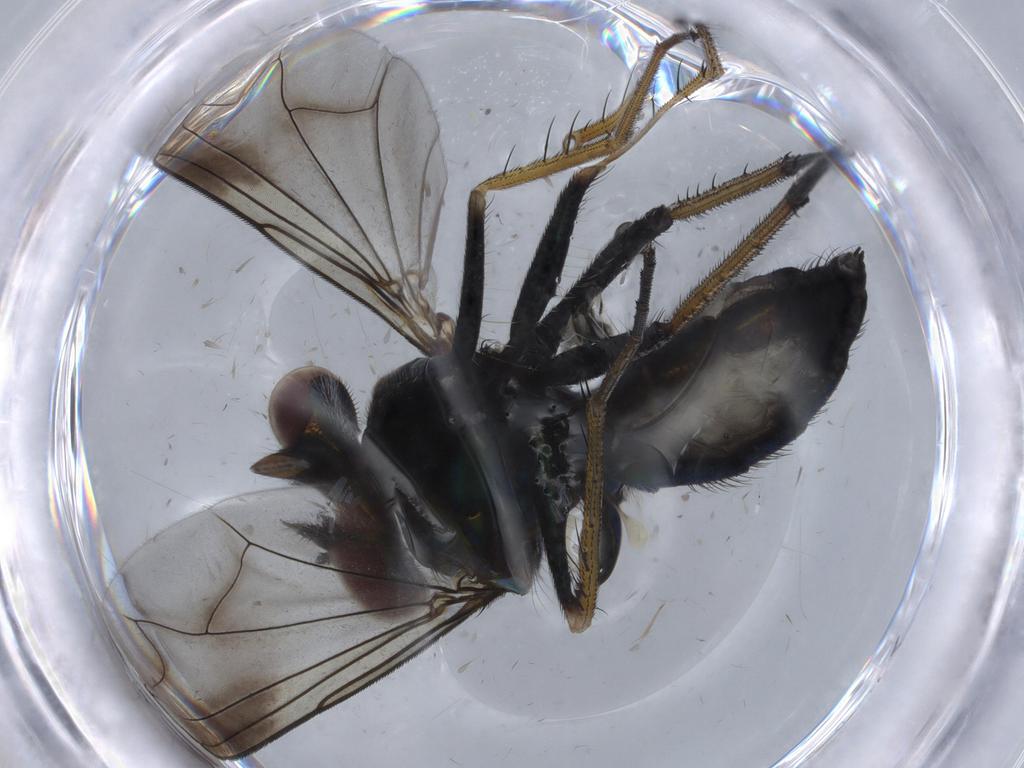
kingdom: Animalia
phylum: Arthropoda
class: Insecta
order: Diptera
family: Dolichopodidae
